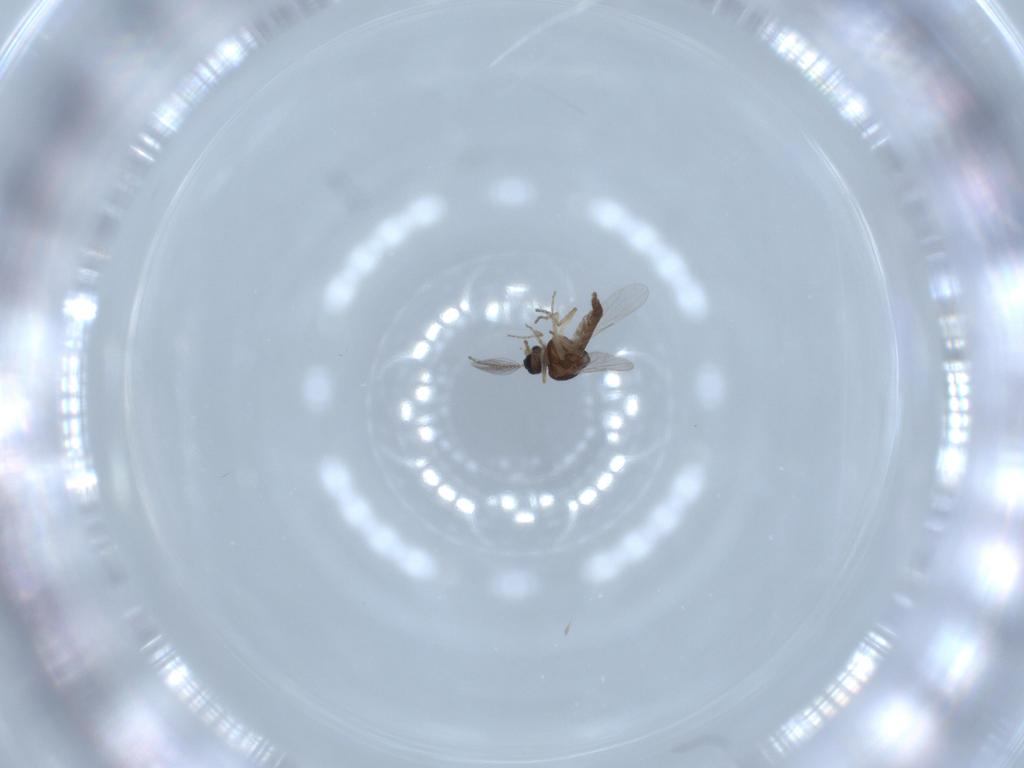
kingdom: Animalia
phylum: Arthropoda
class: Insecta
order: Diptera
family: Ceratopogonidae
